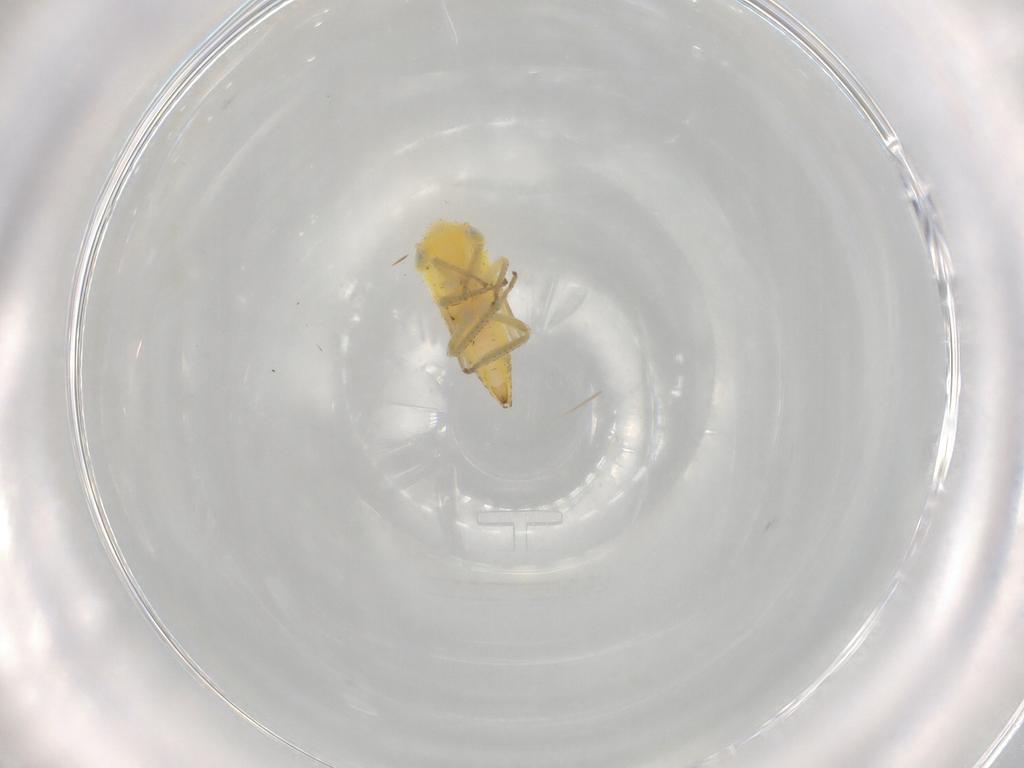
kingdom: Animalia
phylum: Arthropoda
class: Insecta
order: Hemiptera
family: Cicadellidae
